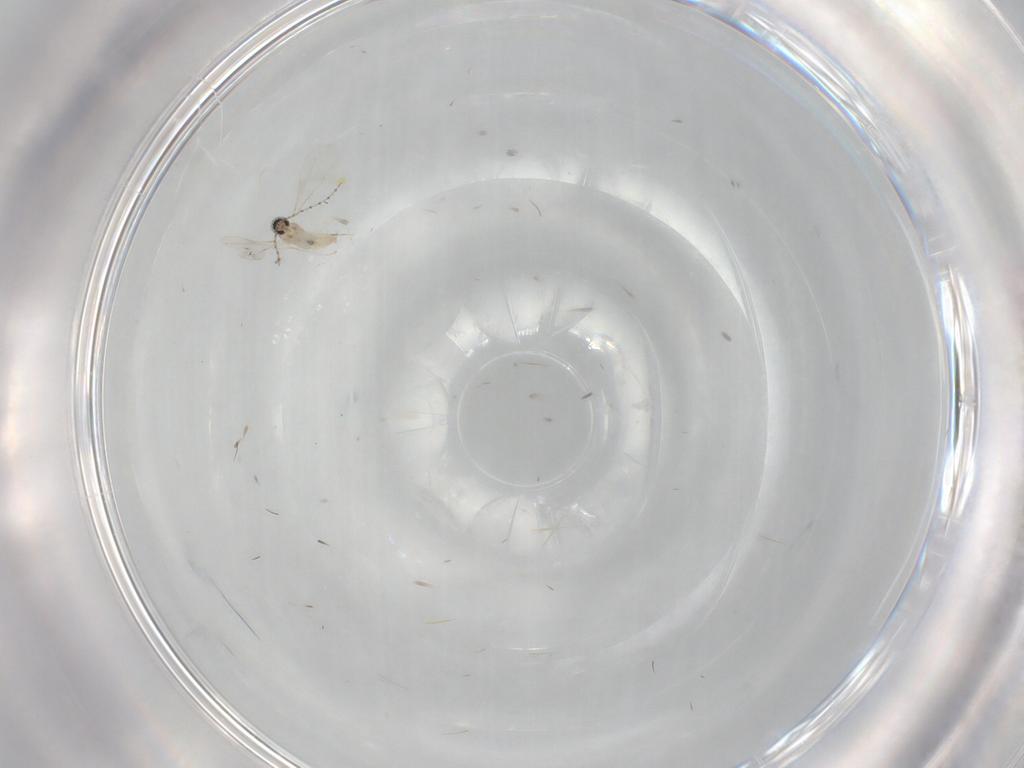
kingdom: Animalia
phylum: Arthropoda
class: Insecta
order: Diptera
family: Cecidomyiidae
